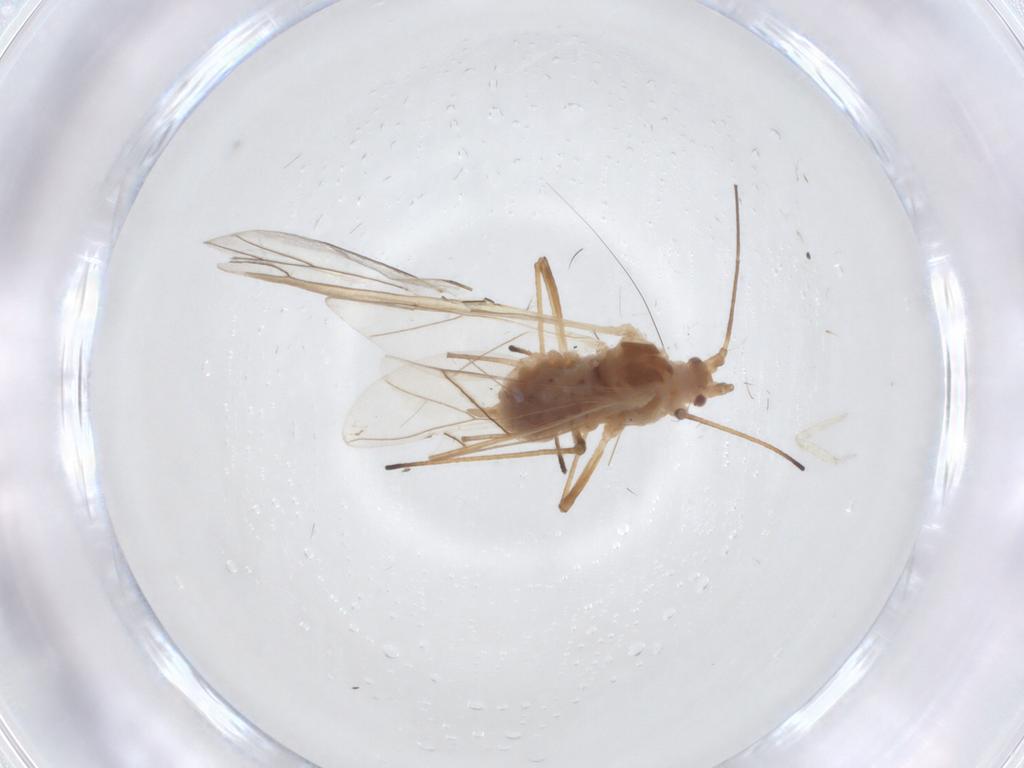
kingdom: Animalia
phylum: Arthropoda
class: Insecta
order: Hemiptera
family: Aphididae
